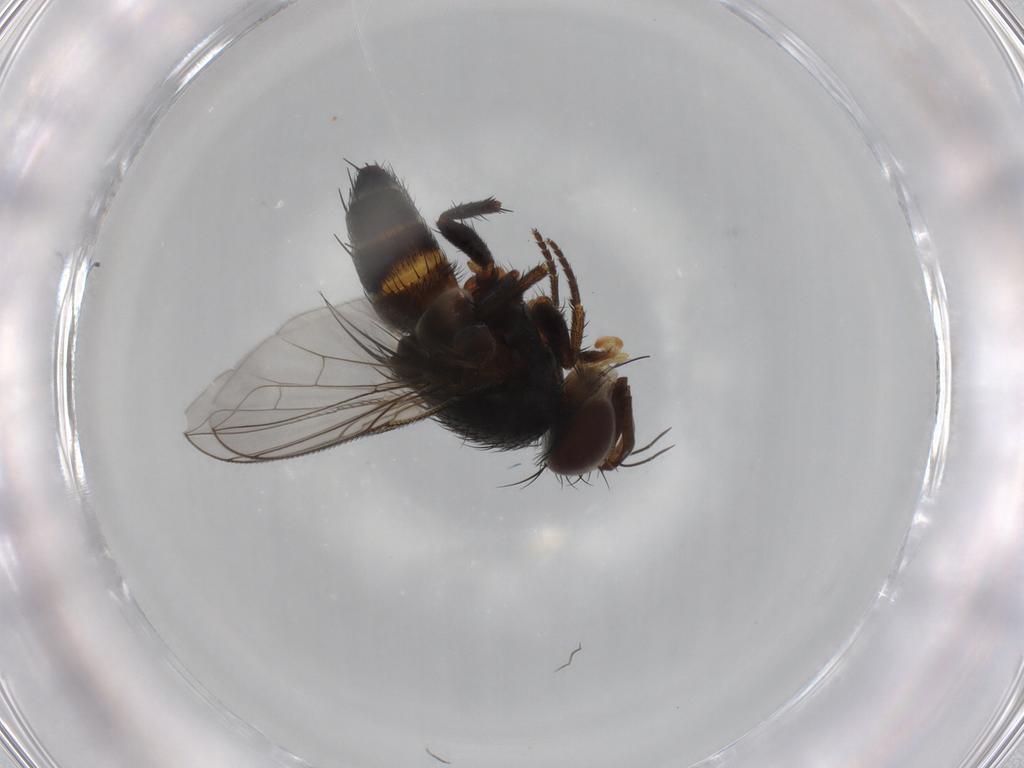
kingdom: Animalia
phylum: Arthropoda
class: Insecta
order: Diptera
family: Tachinidae
